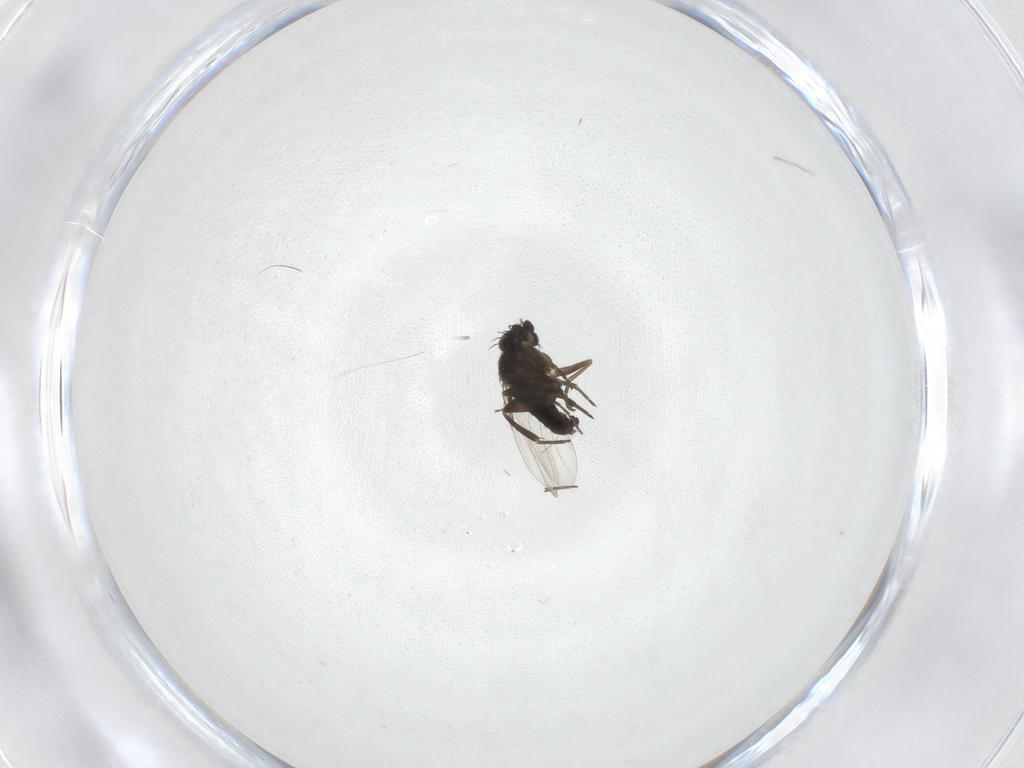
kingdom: Animalia
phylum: Arthropoda
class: Insecta
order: Diptera
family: Phoridae
